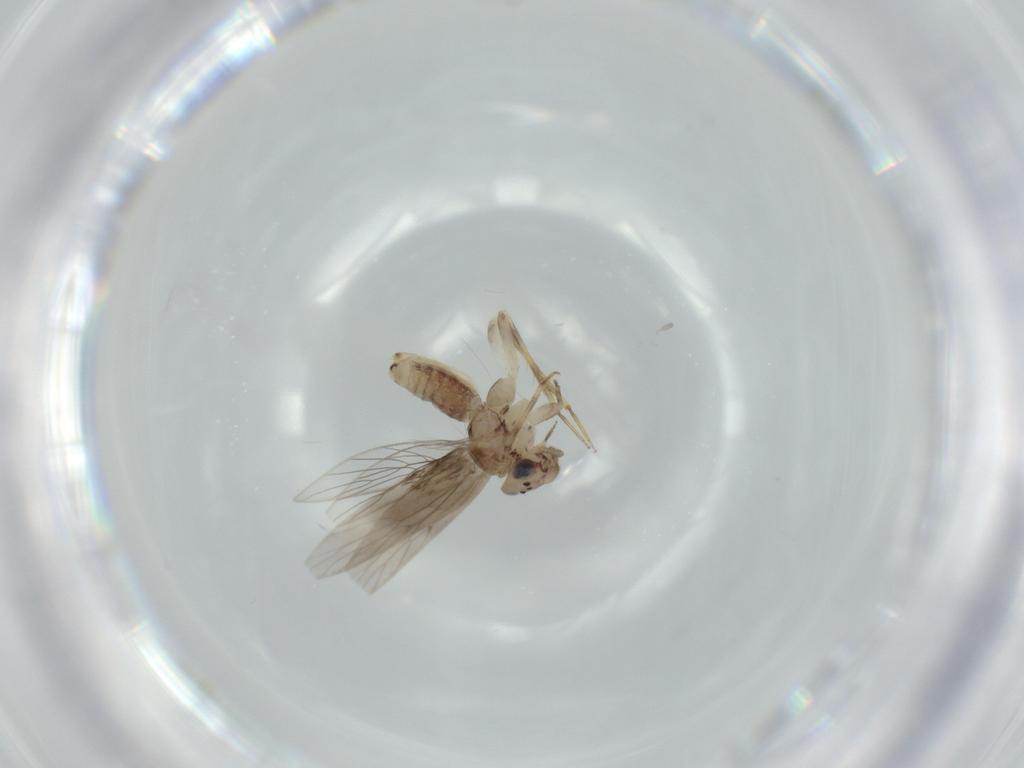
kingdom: Animalia
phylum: Arthropoda
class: Insecta
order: Psocodea
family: Lepidopsocidae
